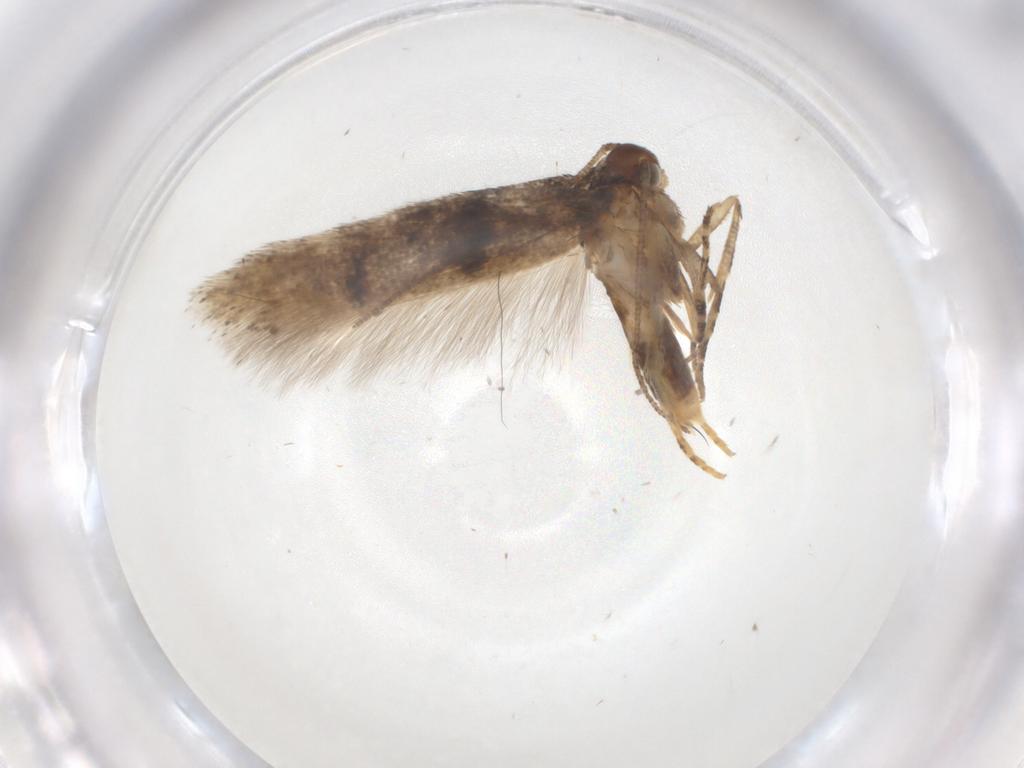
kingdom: Animalia
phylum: Arthropoda
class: Insecta
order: Lepidoptera
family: Gelechiidae
